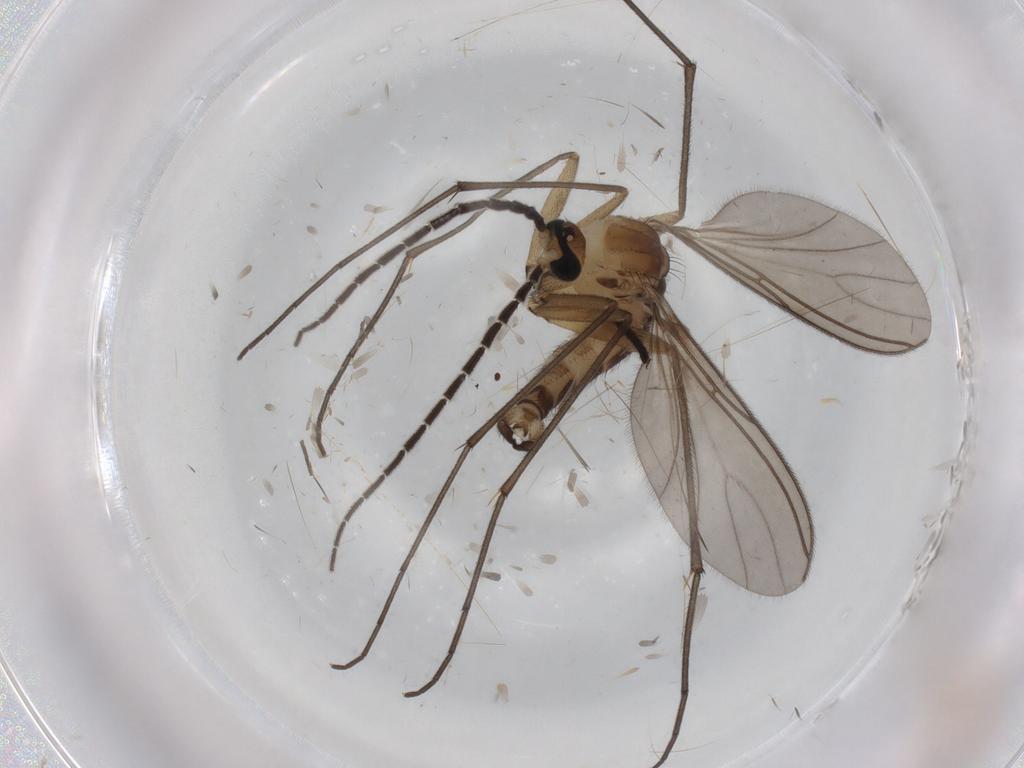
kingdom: Animalia
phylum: Arthropoda
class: Insecta
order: Diptera
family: Sciaridae
